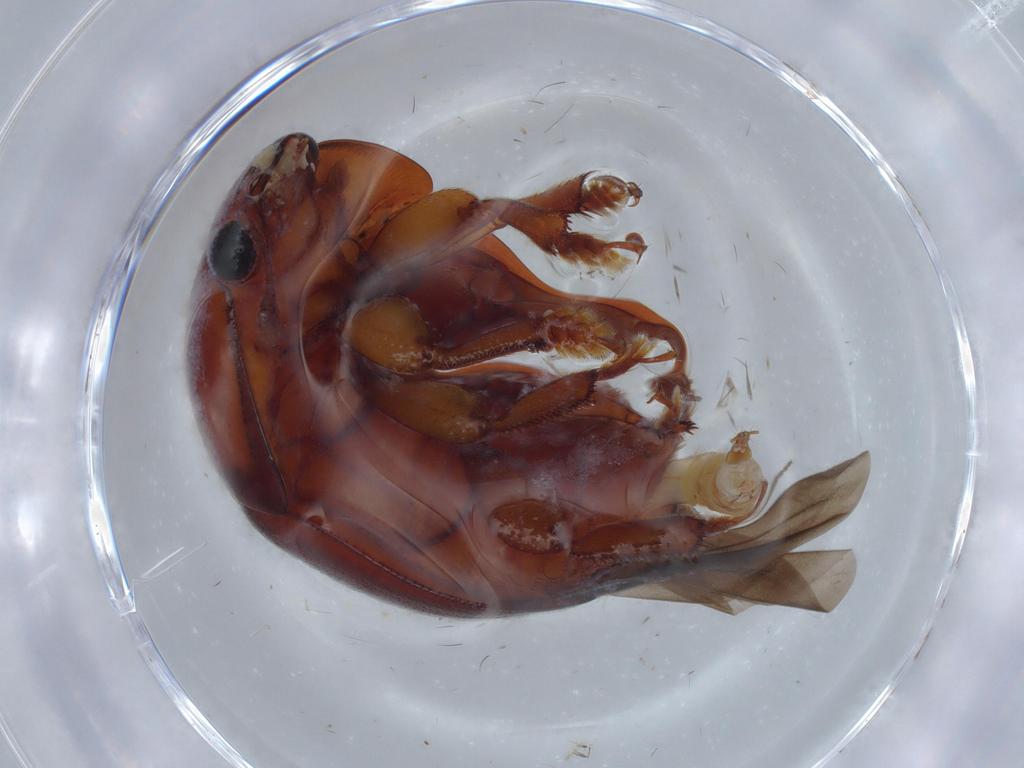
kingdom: Animalia
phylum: Arthropoda
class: Insecta
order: Coleoptera
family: Nitidulidae
